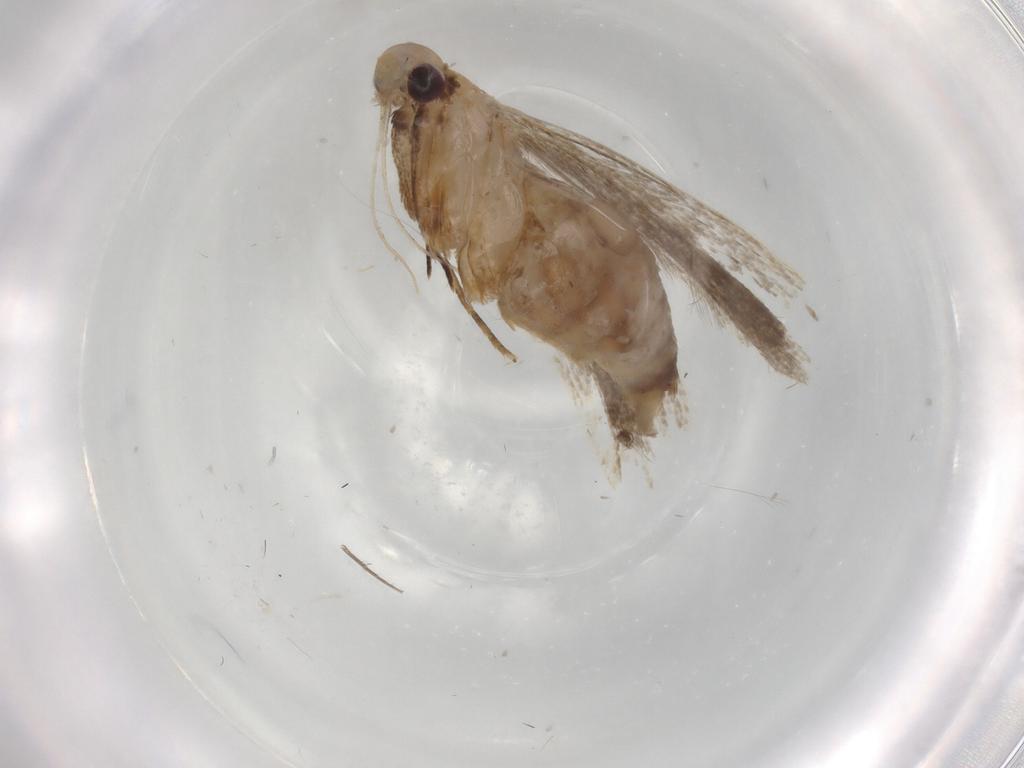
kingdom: Animalia
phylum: Arthropoda
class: Insecta
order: Lepidoptera
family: Gelechiidae
